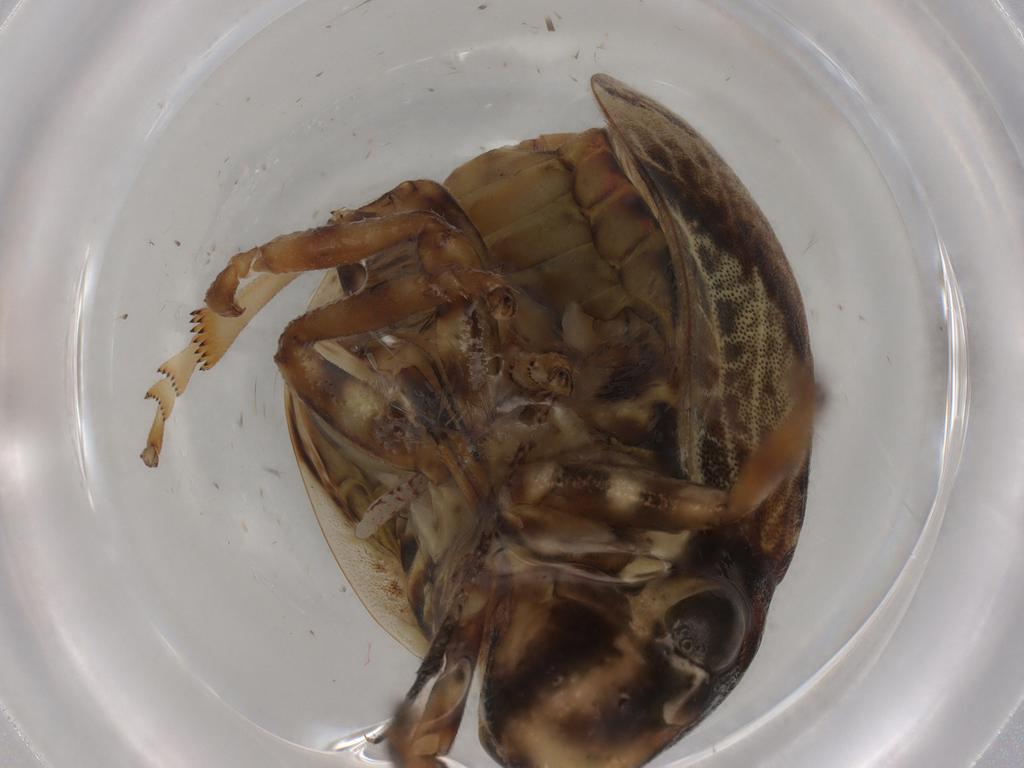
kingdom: Animalia
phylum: Arthropoda
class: Insecta
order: Hemiptera
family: Aphrophoridae
